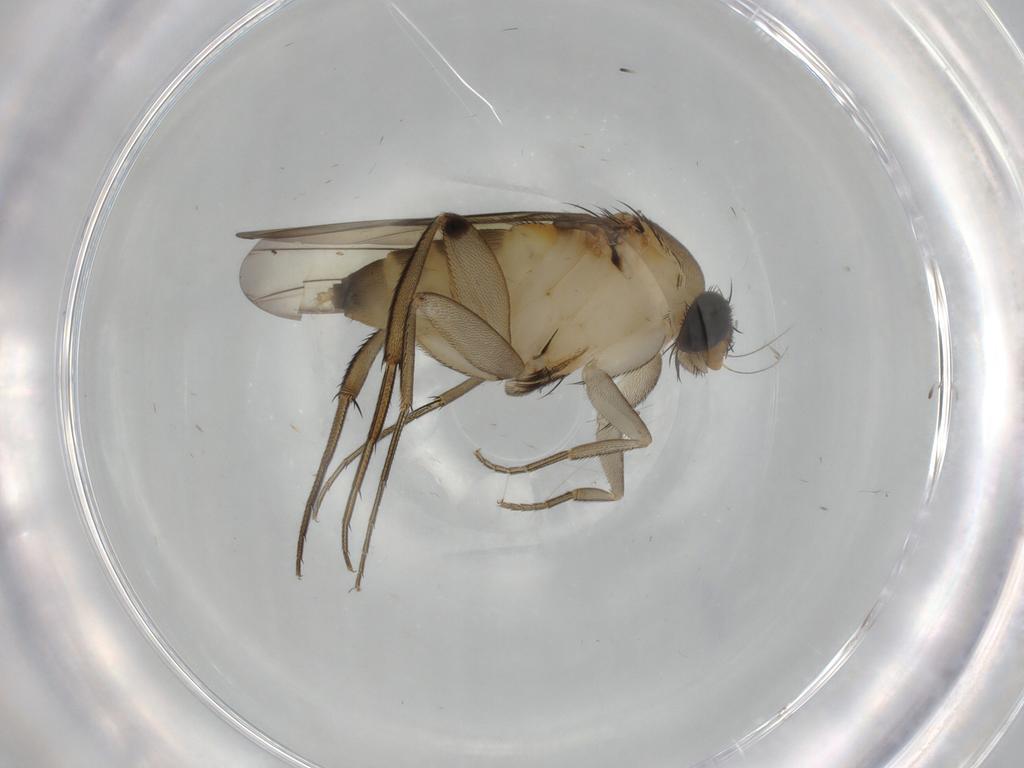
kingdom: Animalia
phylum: Arthropoda
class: Insecta
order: Diptera
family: Phoridae
